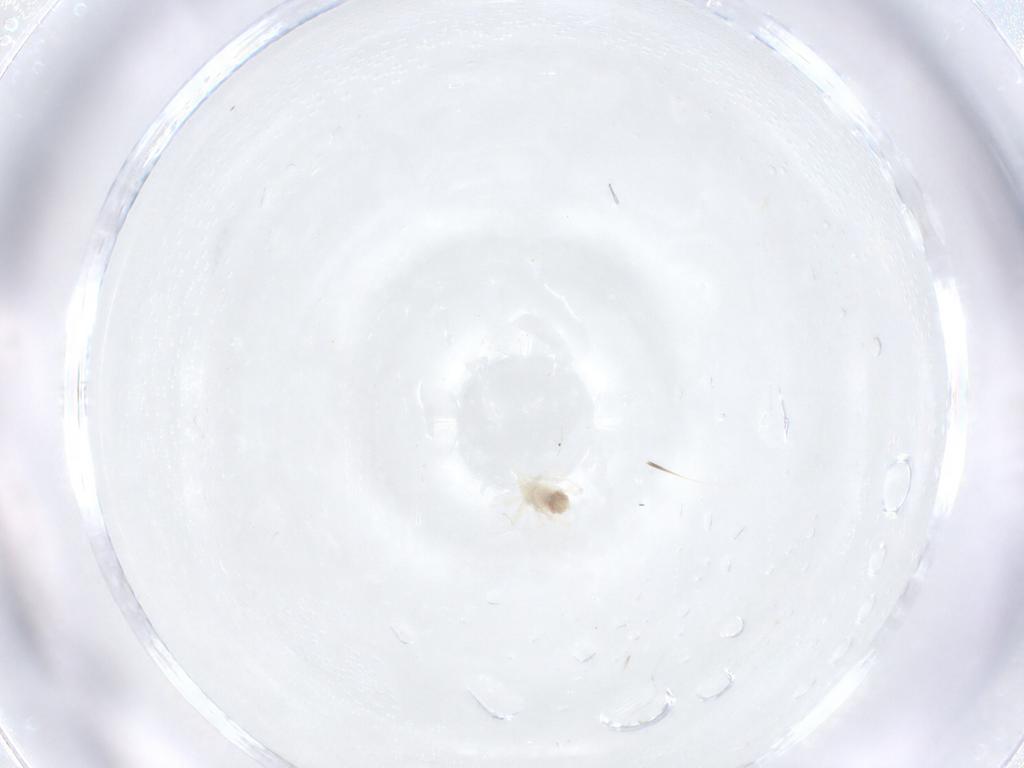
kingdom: Animalia
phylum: Arthropoda
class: Arachnida
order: Trombidiformes
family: Anystidae
